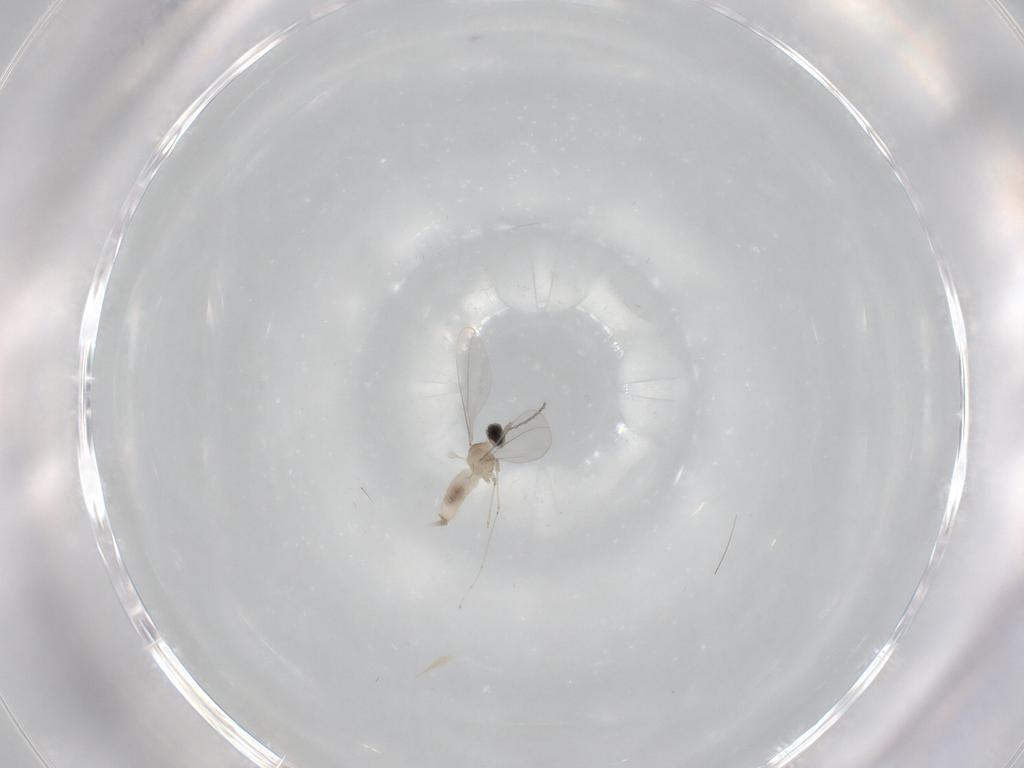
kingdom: Animalia
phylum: Arthropoda
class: Insecta
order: Diptera
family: Cecidomyiidae
